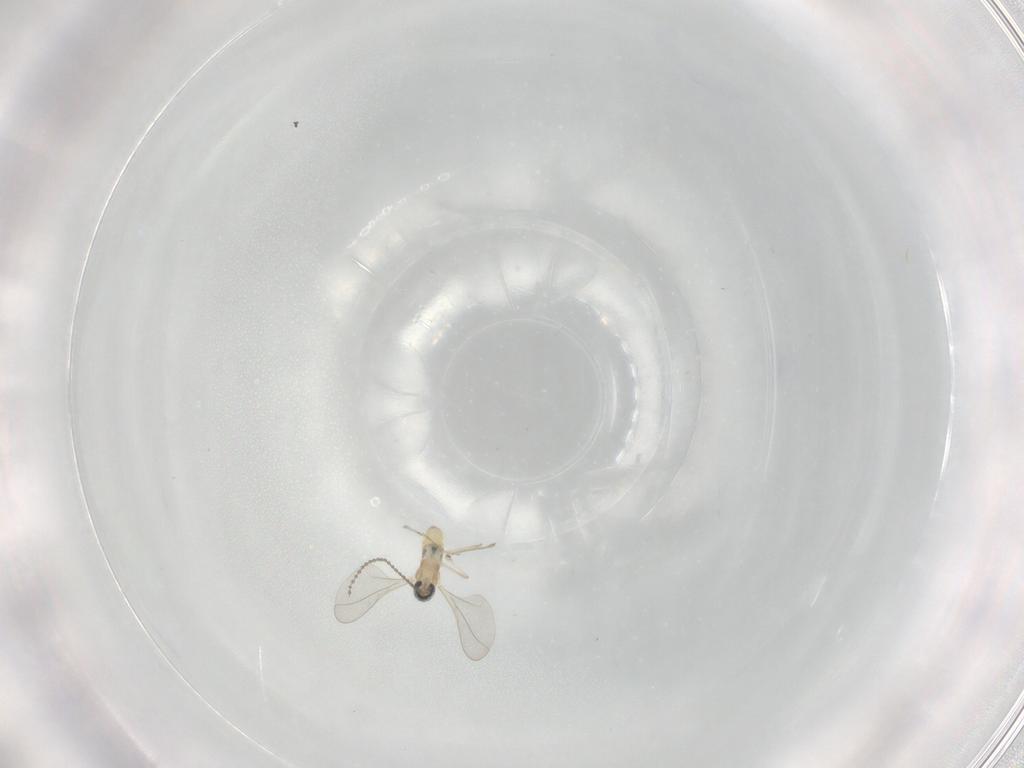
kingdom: Animalia
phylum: Arthropoda
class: Insecta
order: Diptera
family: Cecidomyiidae
